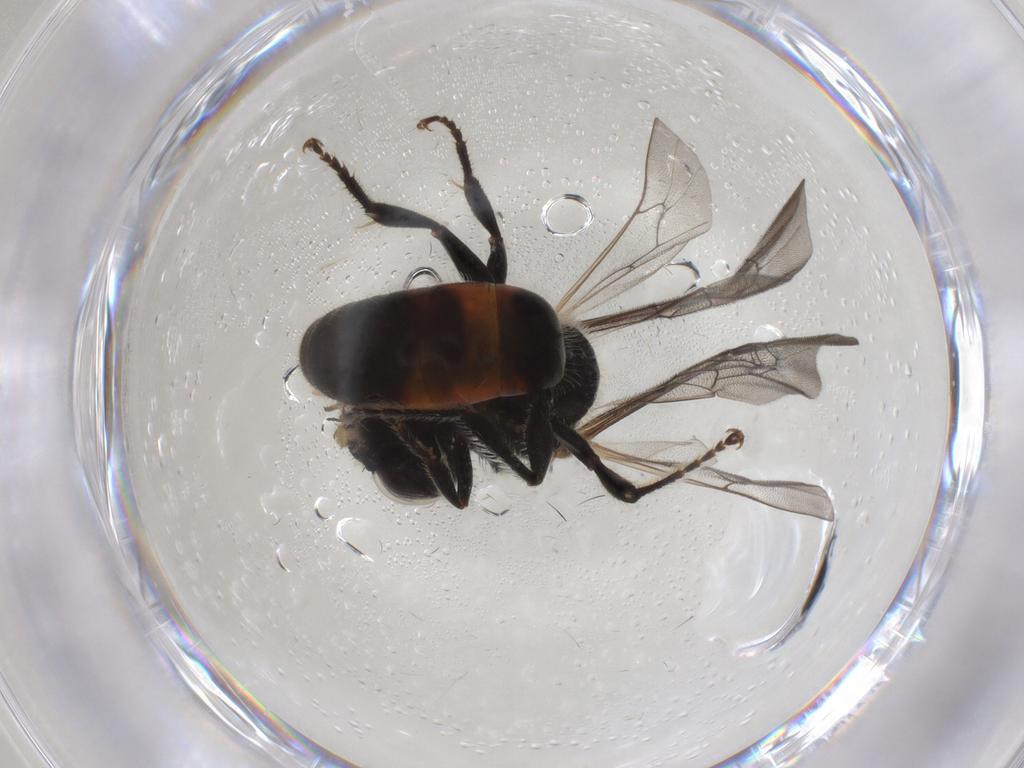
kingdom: Animalia
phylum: Arthropoda
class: Insecta
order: Hymenoptera
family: Halictidae
